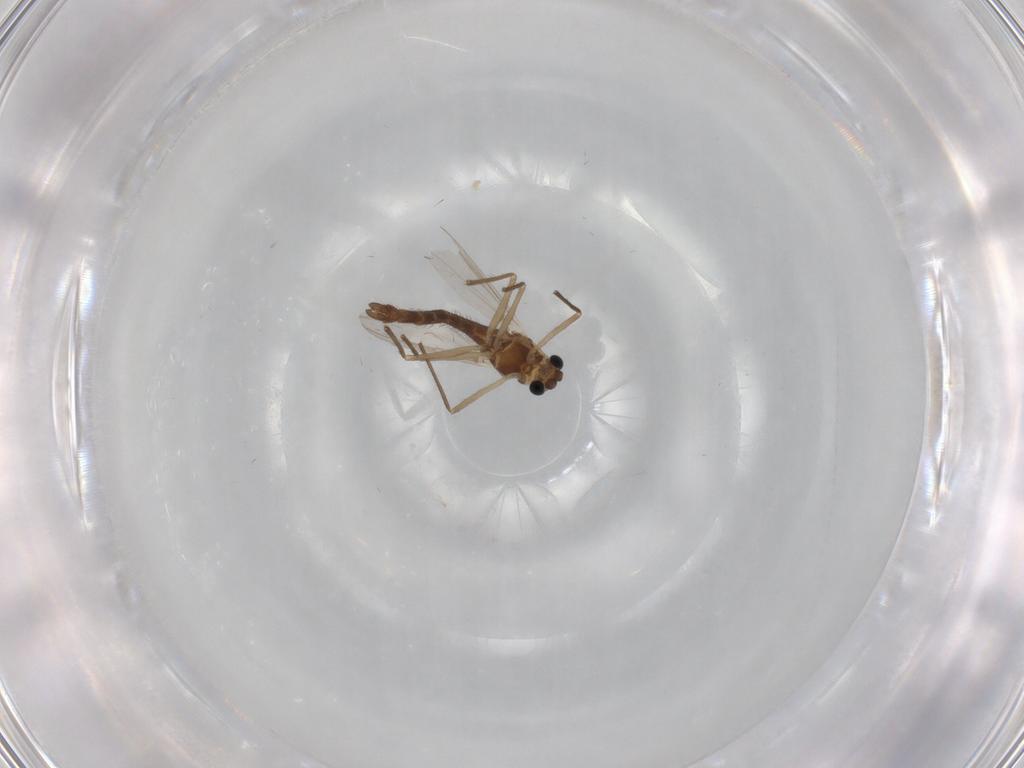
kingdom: Animalia
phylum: Arthropoda
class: Insecta
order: Diptera
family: Chironomidae
